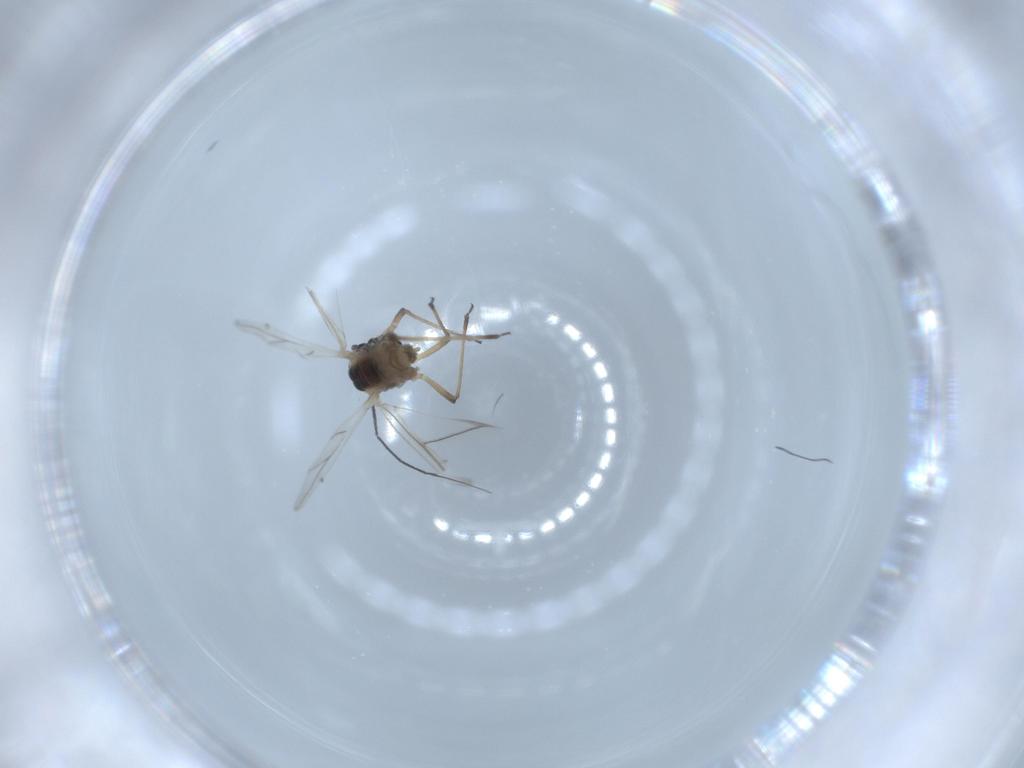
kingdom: Animalia
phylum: Arthropoda
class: Insecta
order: Hemiptera
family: Aphididae
